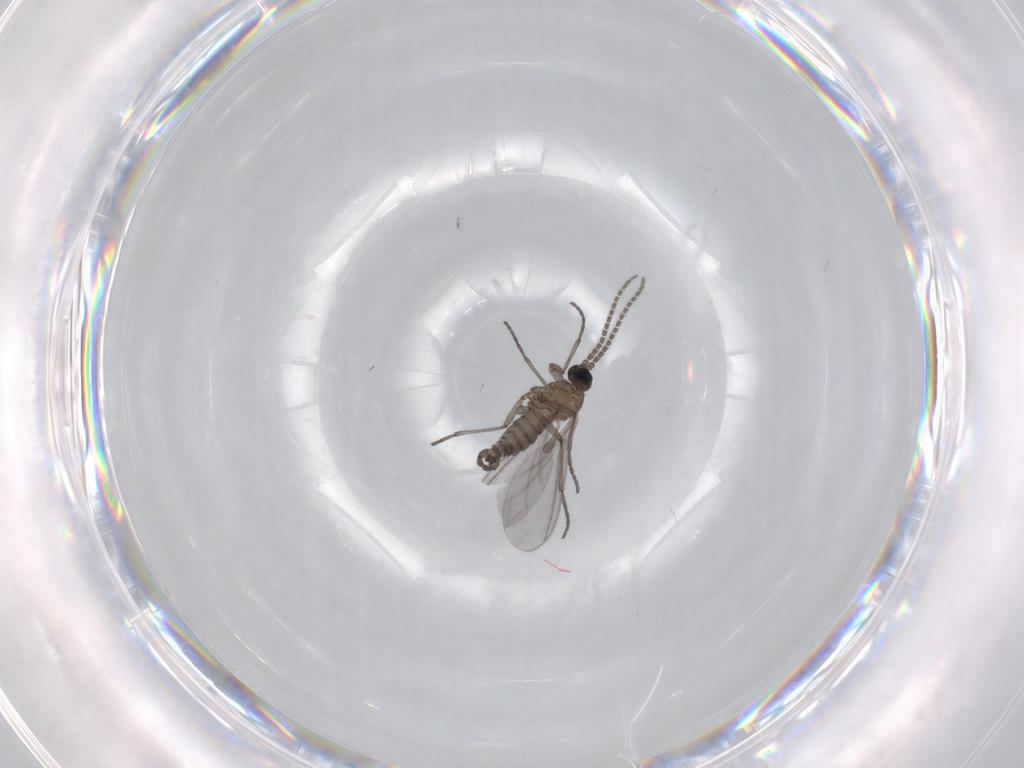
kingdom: Animalia
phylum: Arthropoda
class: Insecta
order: Diptera
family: Sciaridae
